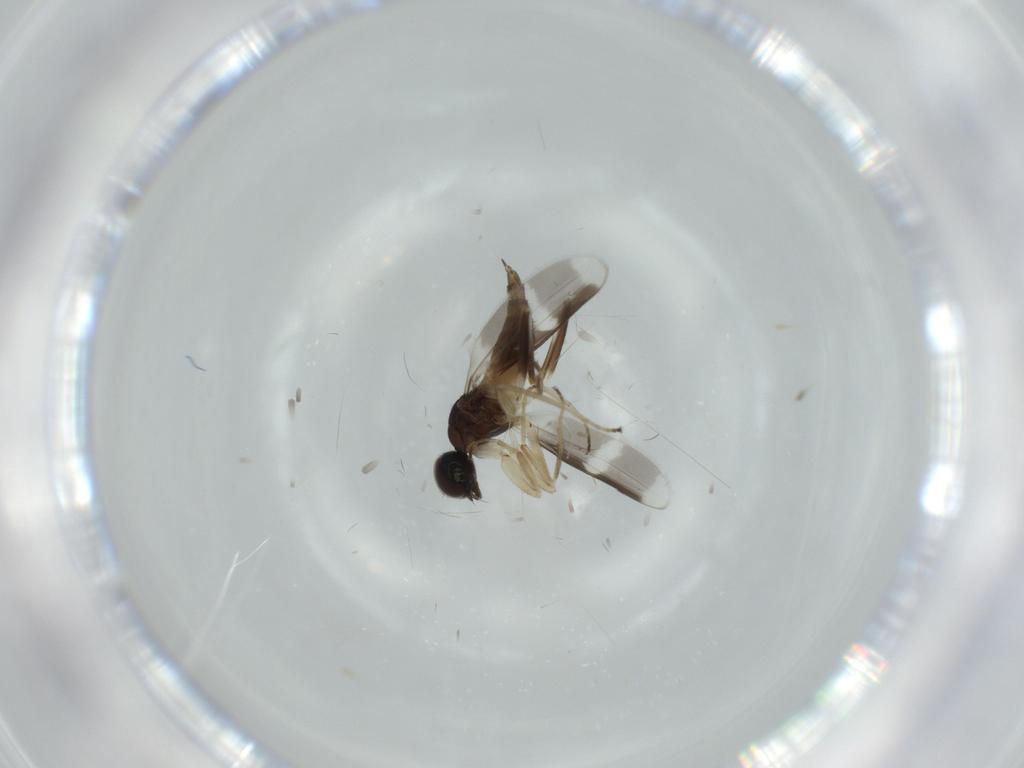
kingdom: Animalia
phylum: Arthropoda
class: Insecta
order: Diptera
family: Hybotidae
